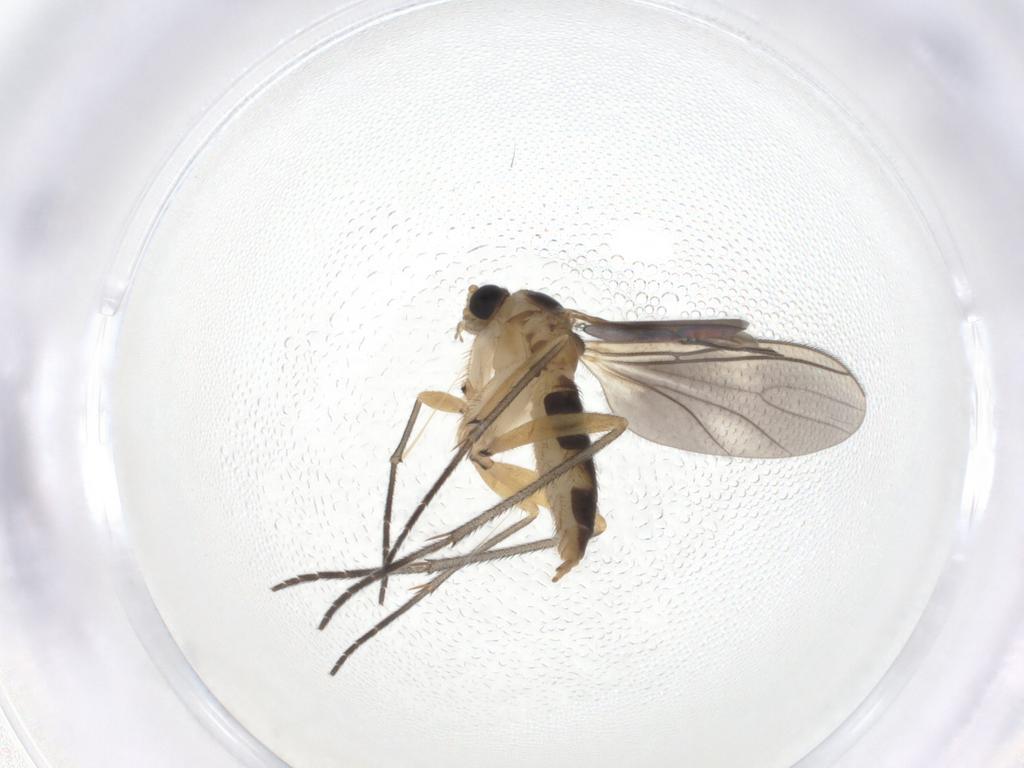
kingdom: Animalia
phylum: Arthropoda
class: Insecta
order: Diptera
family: Sciaridae
